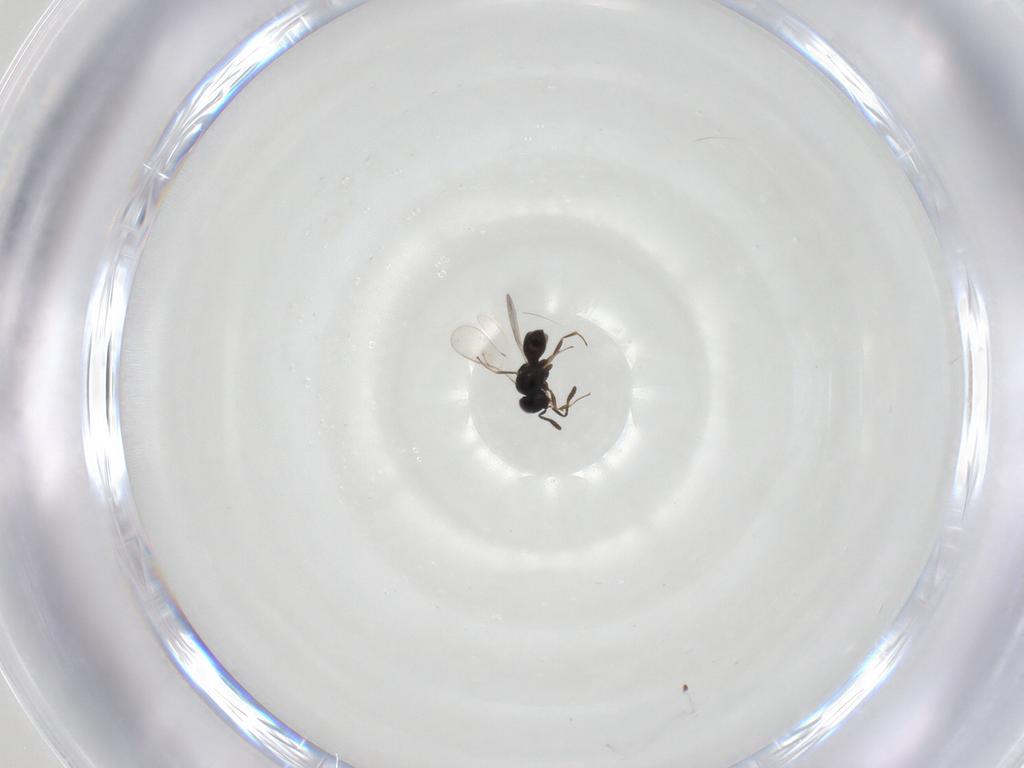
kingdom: Animalia
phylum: Arthropoda
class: Insecta
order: Hymenoptera
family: Scelionidae
